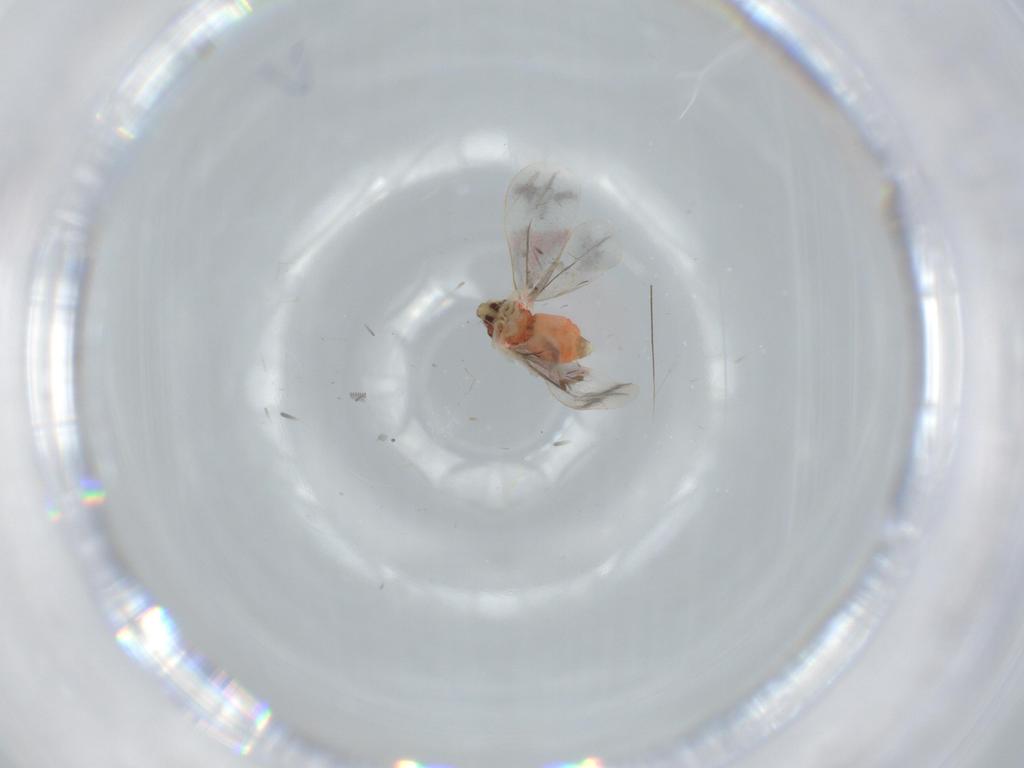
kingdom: Animalia
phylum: Arthropoda
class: Insecta
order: Hemiptera
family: Aleyrodidae
